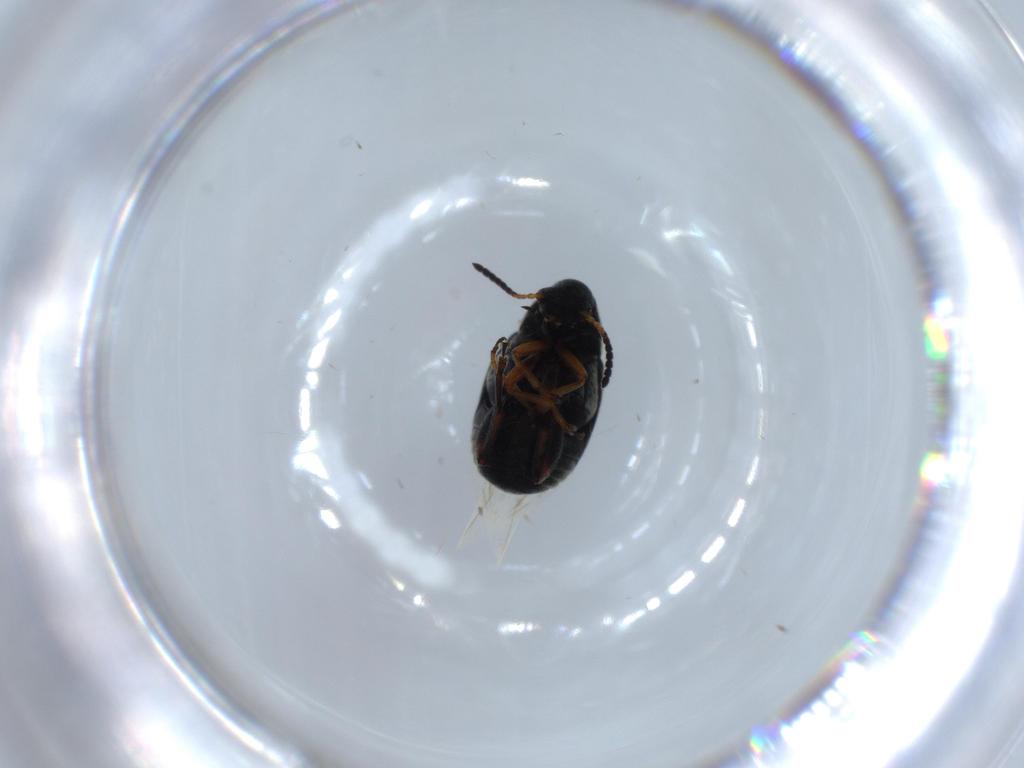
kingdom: Animalia
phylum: Arthropoda
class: Insecta
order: Coleoptera
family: Chrysomelidae
